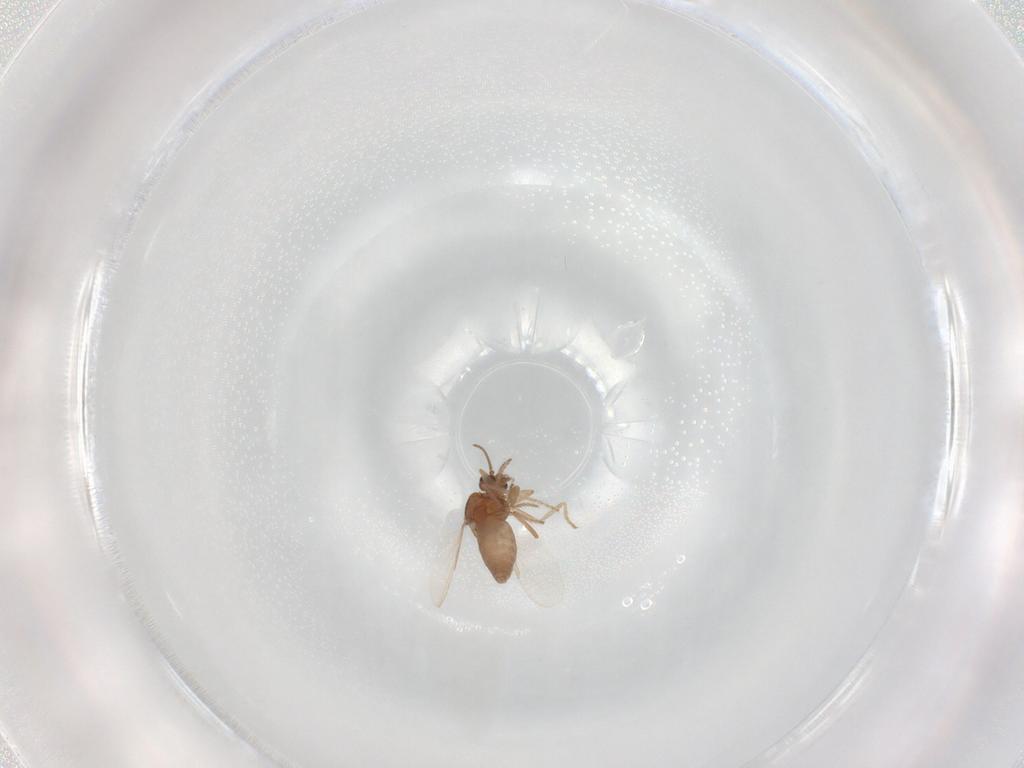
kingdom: Animalia
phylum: Arthropoda
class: Insecta
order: Diptera
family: Ceratopogonidae
